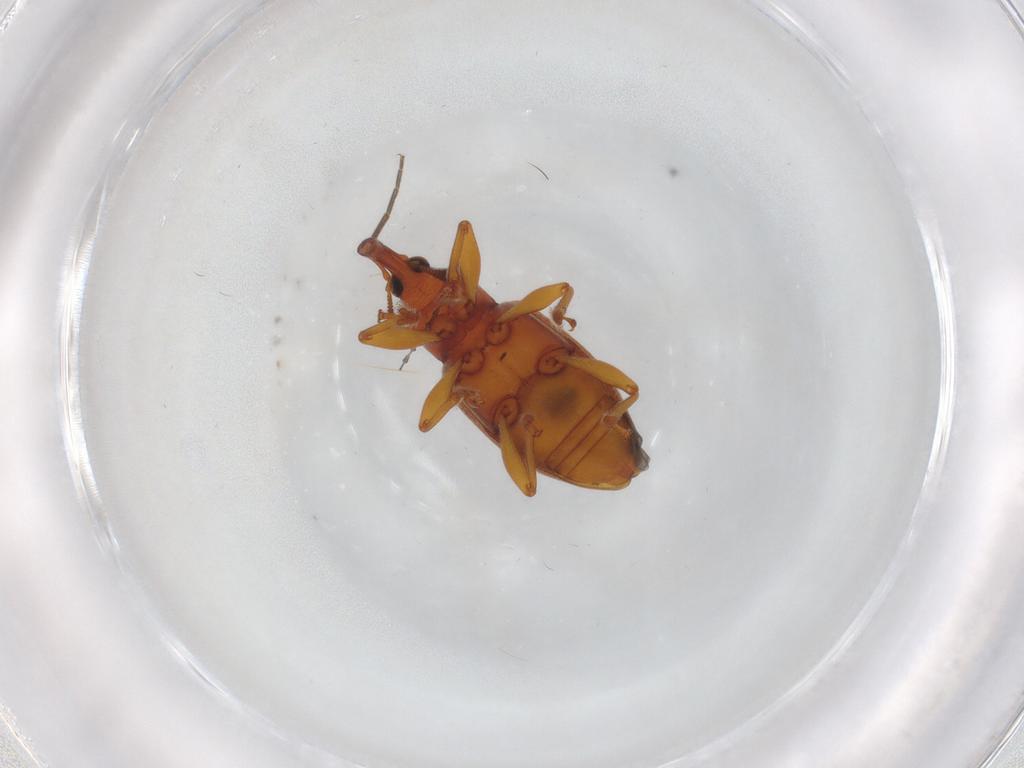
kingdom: Animalia
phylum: Arthropoda
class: Insecta
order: Coleoptera
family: Curculionidae
